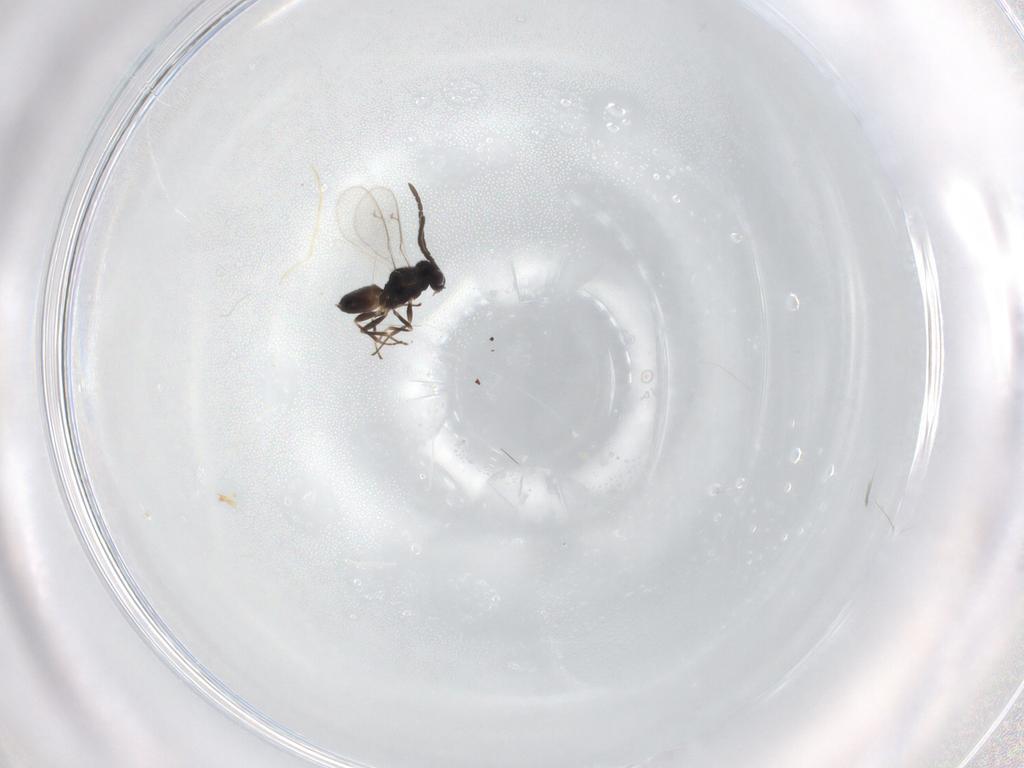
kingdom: Animalia
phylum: Arthropoda
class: Insecta
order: Hymenoptera
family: Eupelmidae
